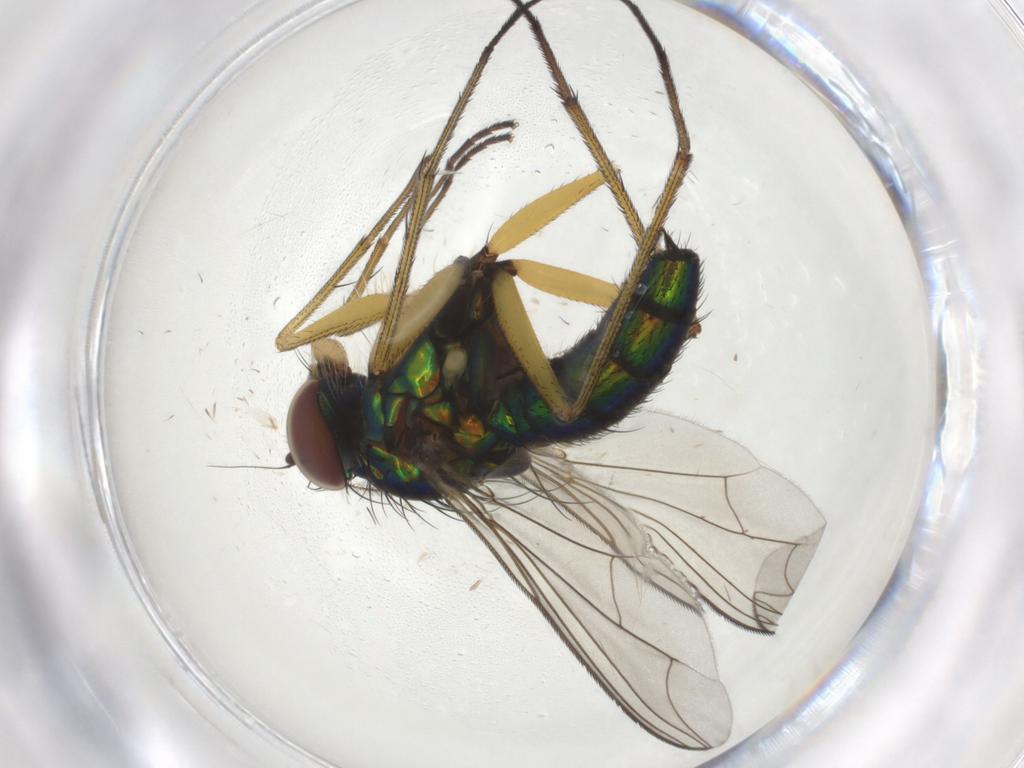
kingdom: Animalia
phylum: Arthropoda
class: Insecta
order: Diptera
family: Dolichopodidae
